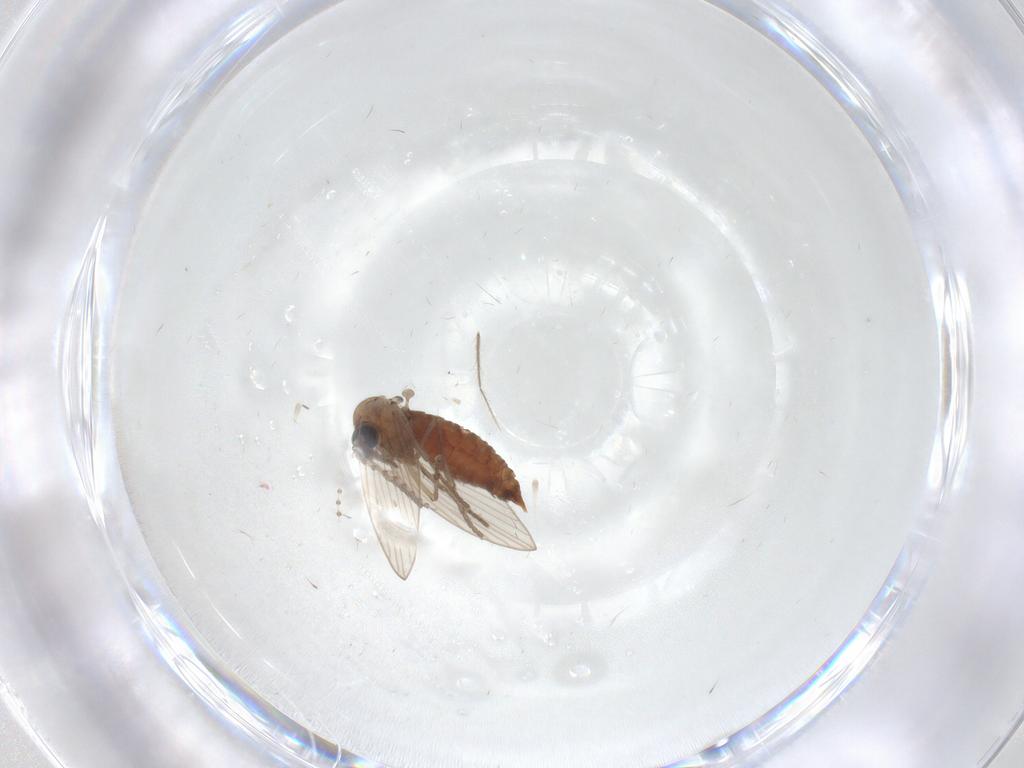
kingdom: Animalia
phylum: Arthropoda
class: Insecta
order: Diptera
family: Psychodidae
